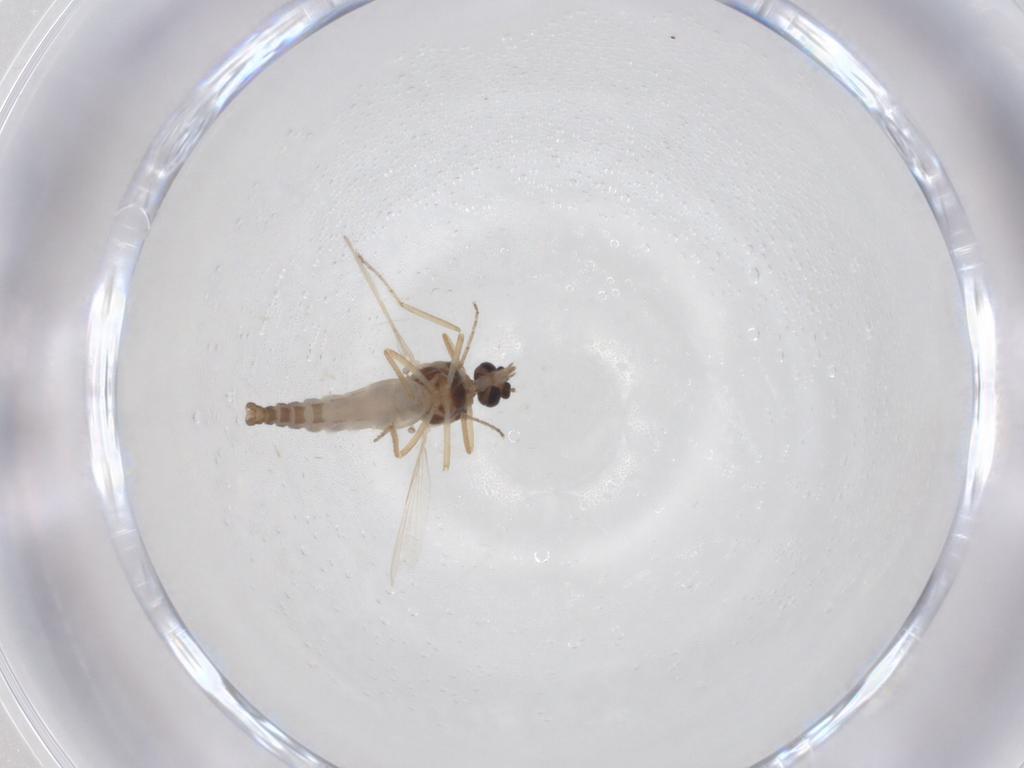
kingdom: Animalia
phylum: Arthropoda
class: Insecta
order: Diptera
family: Ceratopogonidae
